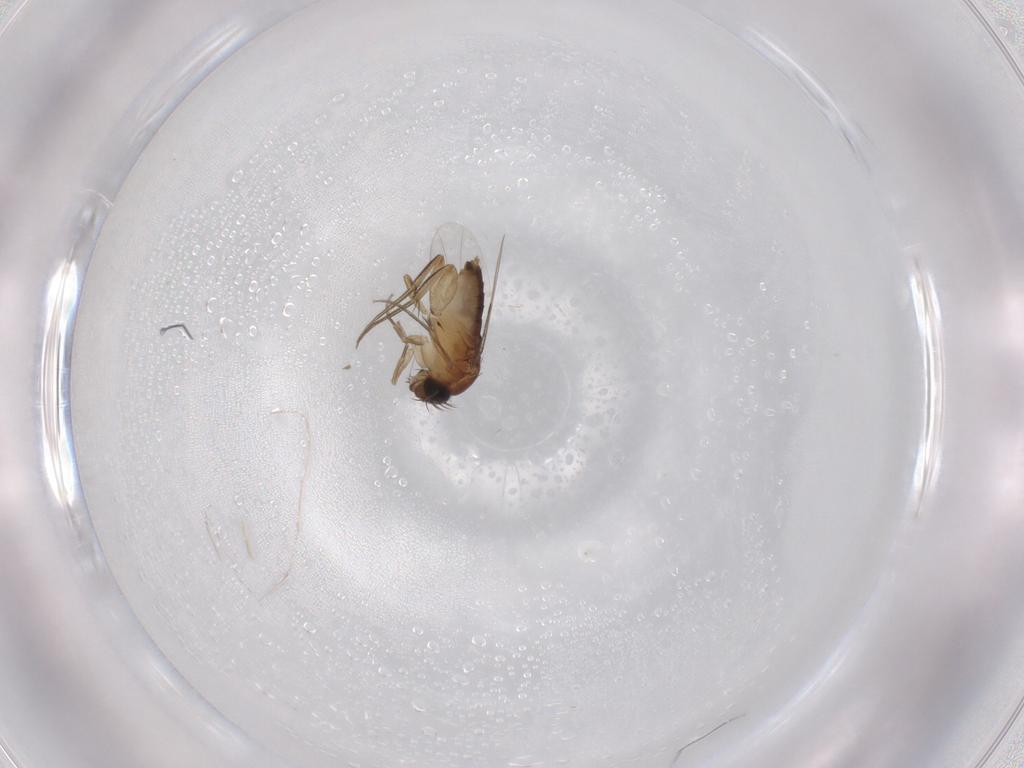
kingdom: Animalia
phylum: Arthropoda
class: Insecta
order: Diptera
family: Phoridae
